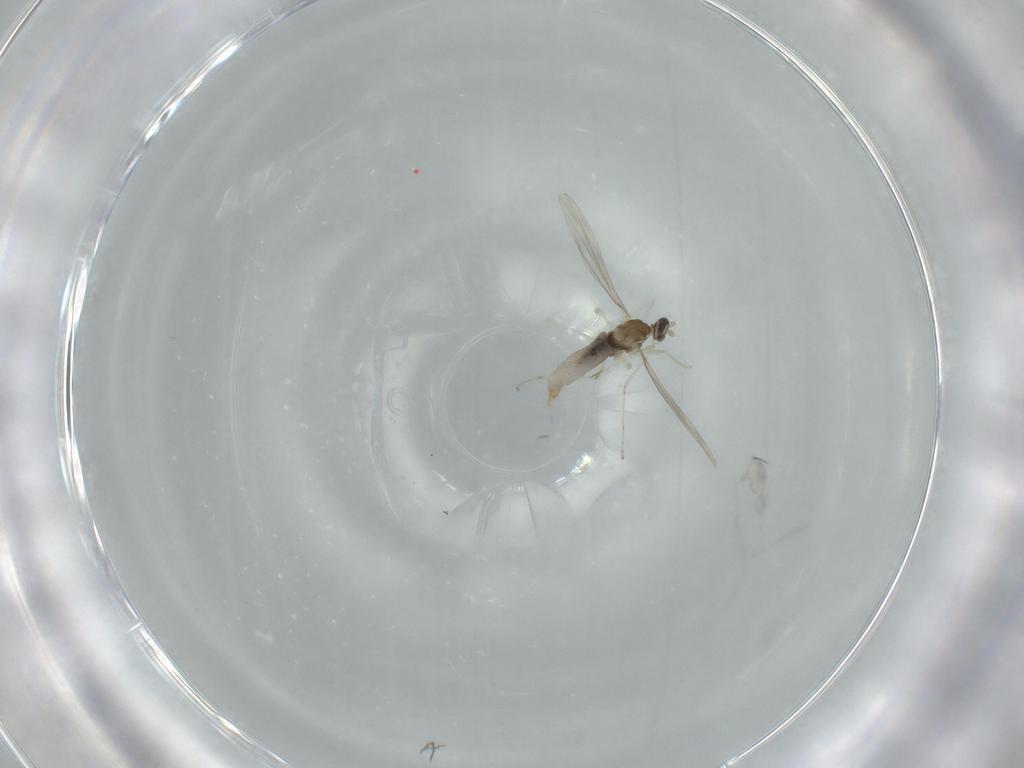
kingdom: Animalia
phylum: Arthropoda
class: Insecta
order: Diptera
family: Cecidomyiidae
